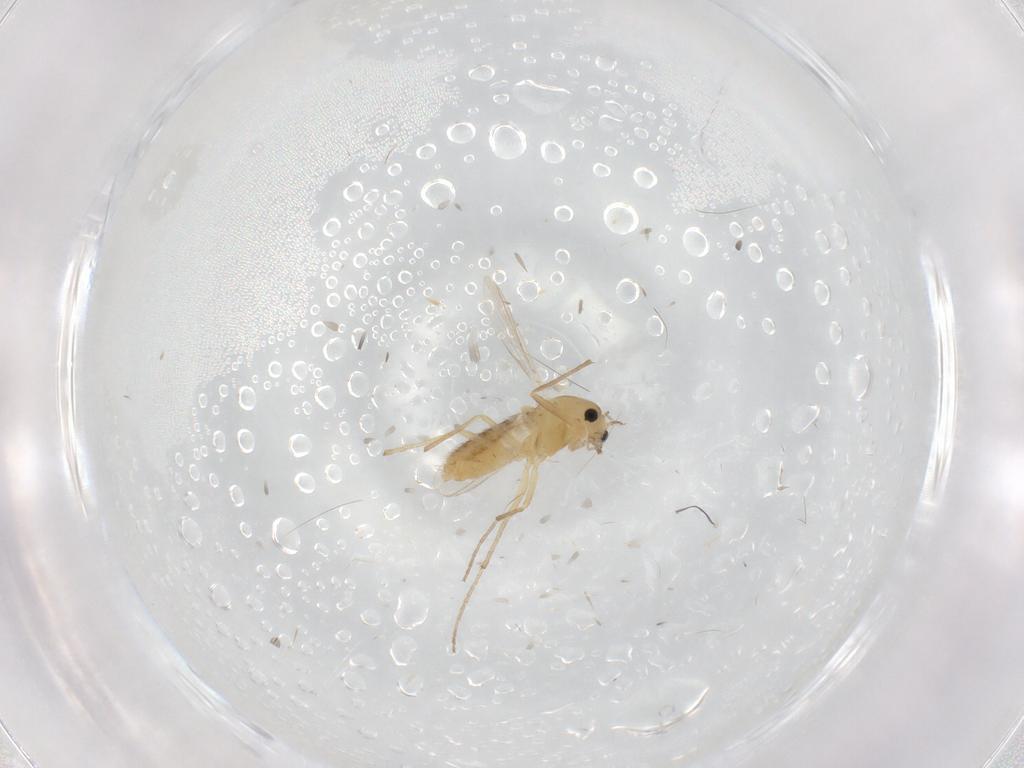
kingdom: Animalia
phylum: Arthropoda
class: Insecta
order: Diptera
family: Chironomidae
